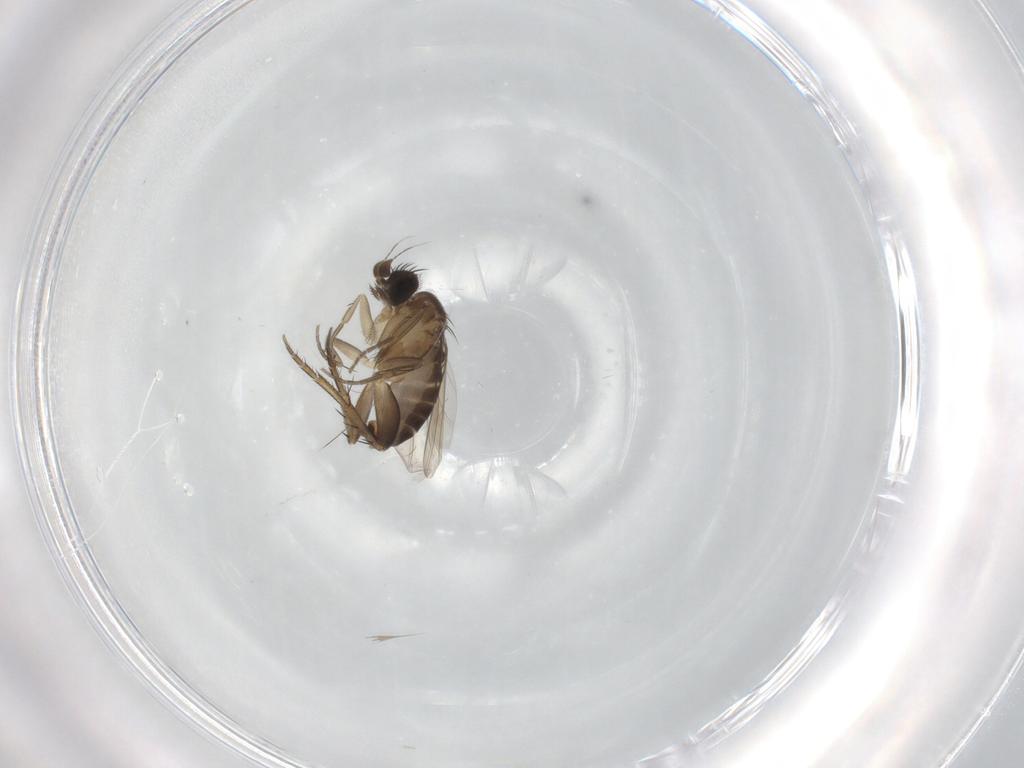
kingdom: Animalia
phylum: Arthropoda
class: Insecta
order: Diptera
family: Phoridae
